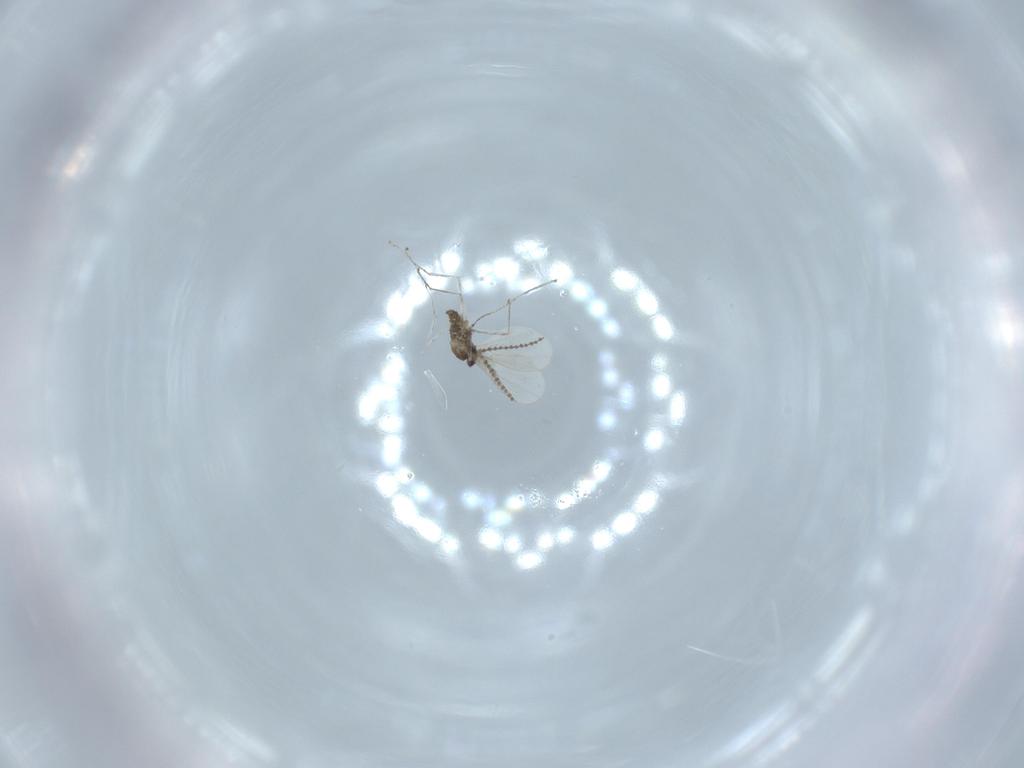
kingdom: Animalia
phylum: Arthropoda
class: Insecta
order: Diptera
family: Cecidomyiidae
